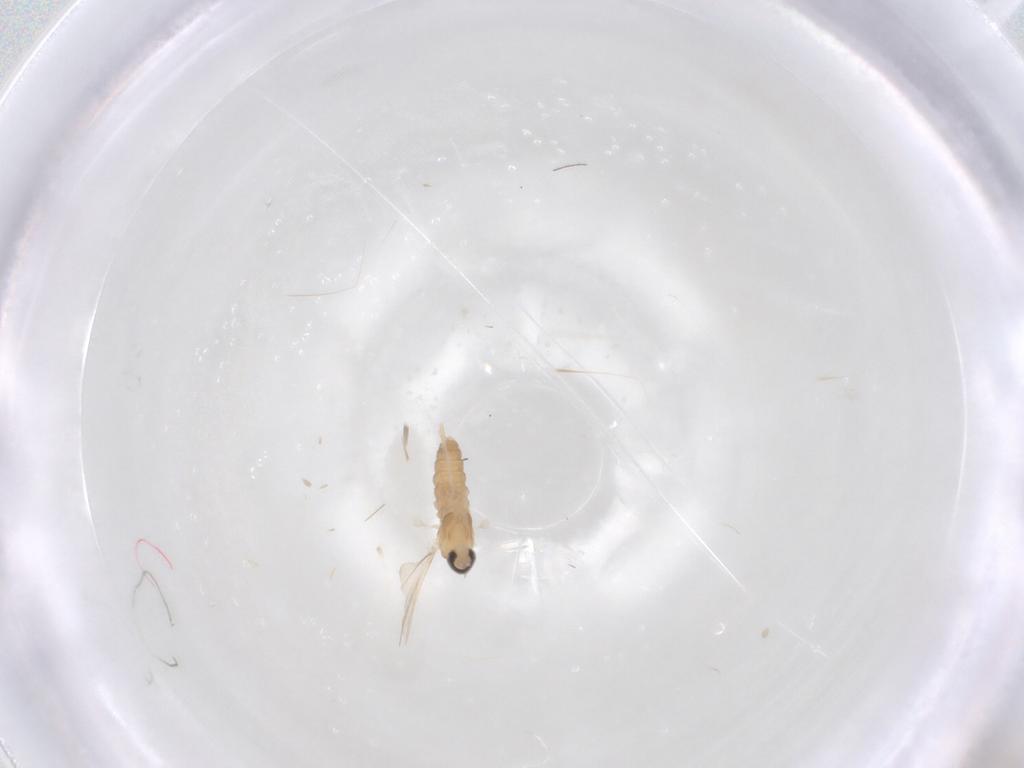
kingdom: Animalia
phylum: Arthropoda
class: Insecta
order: Diptera
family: Cecidomyiidae
